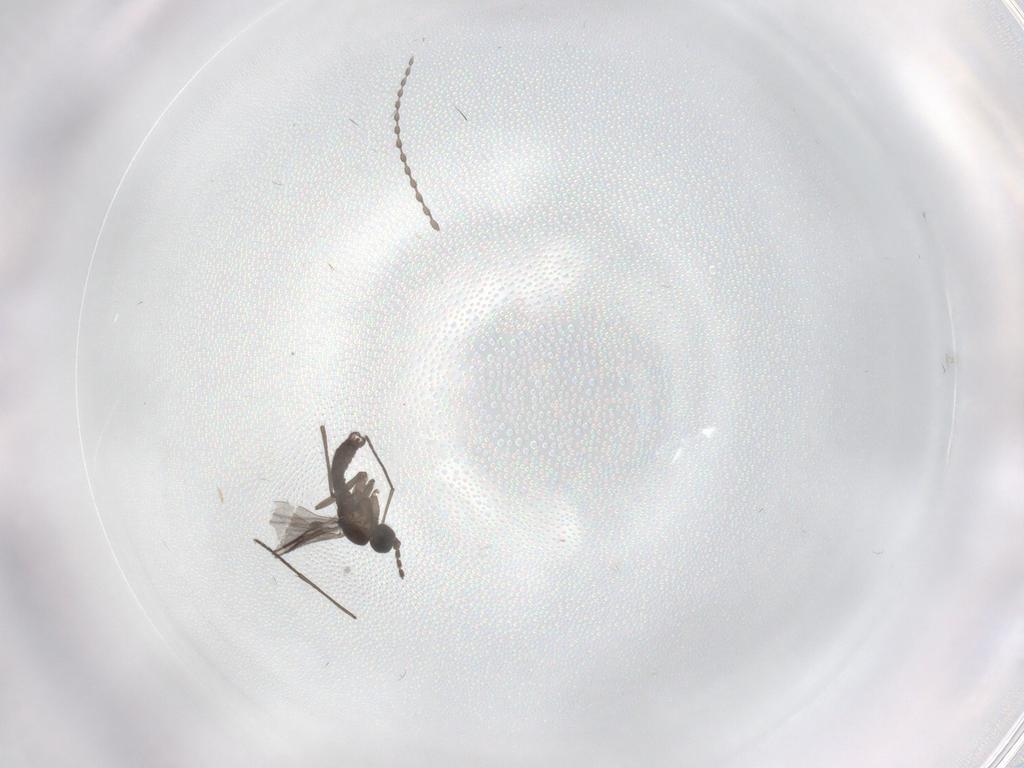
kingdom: Animalia
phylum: Arthropoda
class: Insecta
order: Diptera
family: Cecidomyiidae
